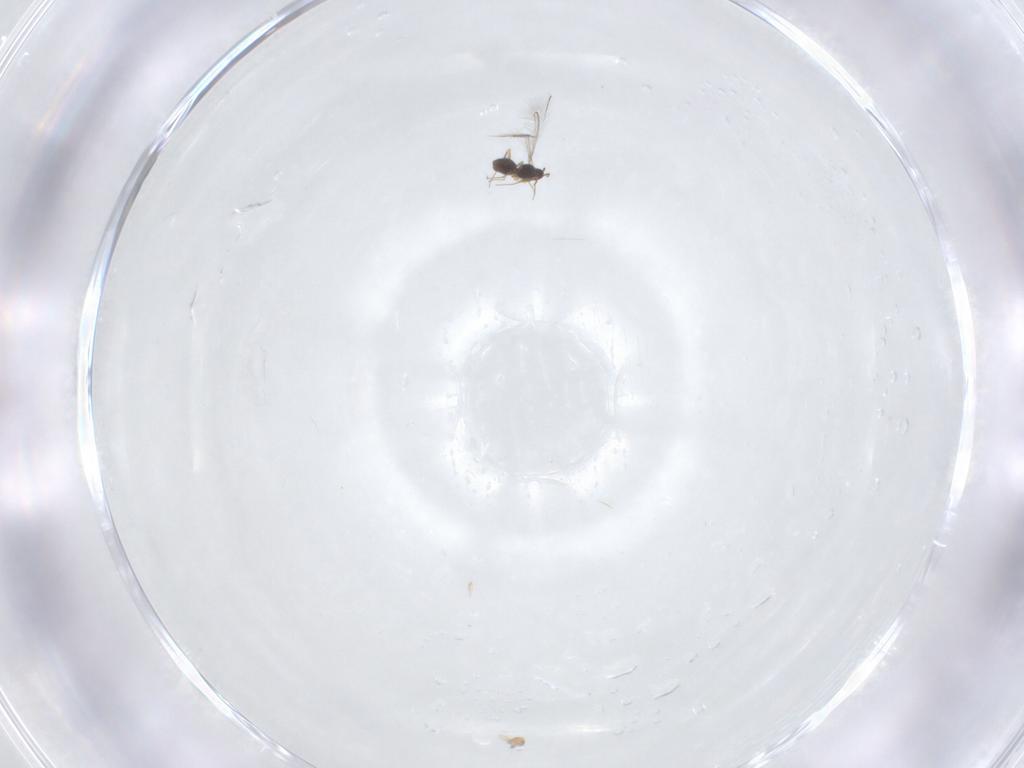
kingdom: Animalia
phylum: Arthropoda
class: Insecta
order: Hymenoptera
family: Mymaridae
